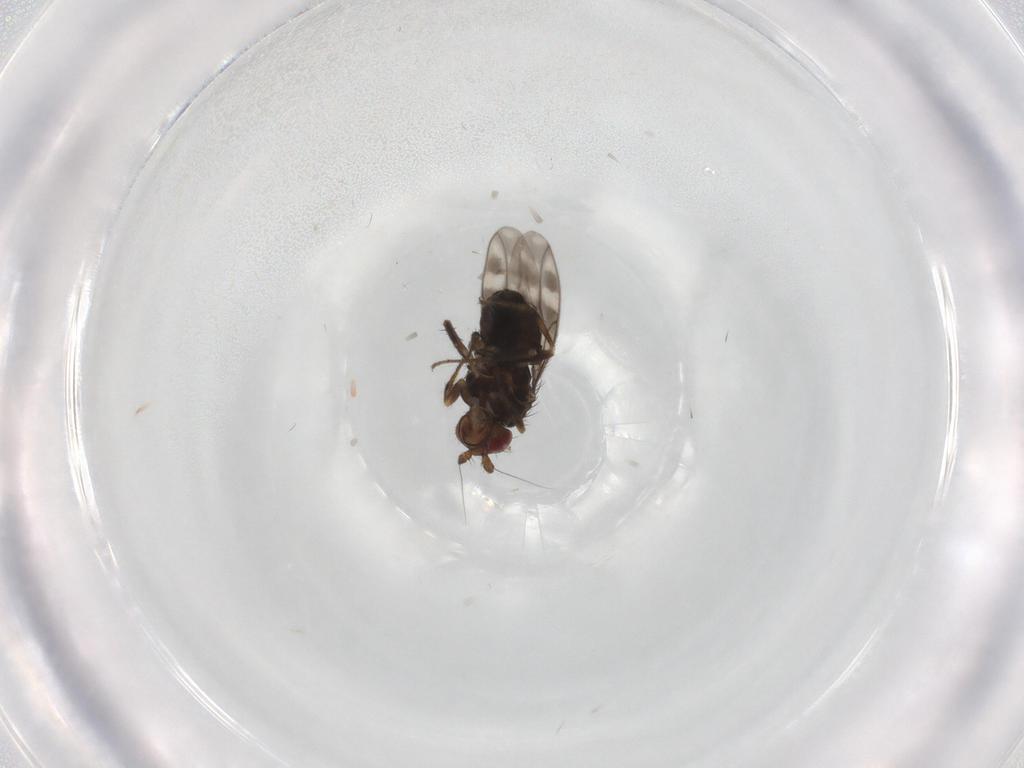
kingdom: Animalia
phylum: Arthropoda
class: Insecta
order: Diptera
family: Sphaeroceridae
